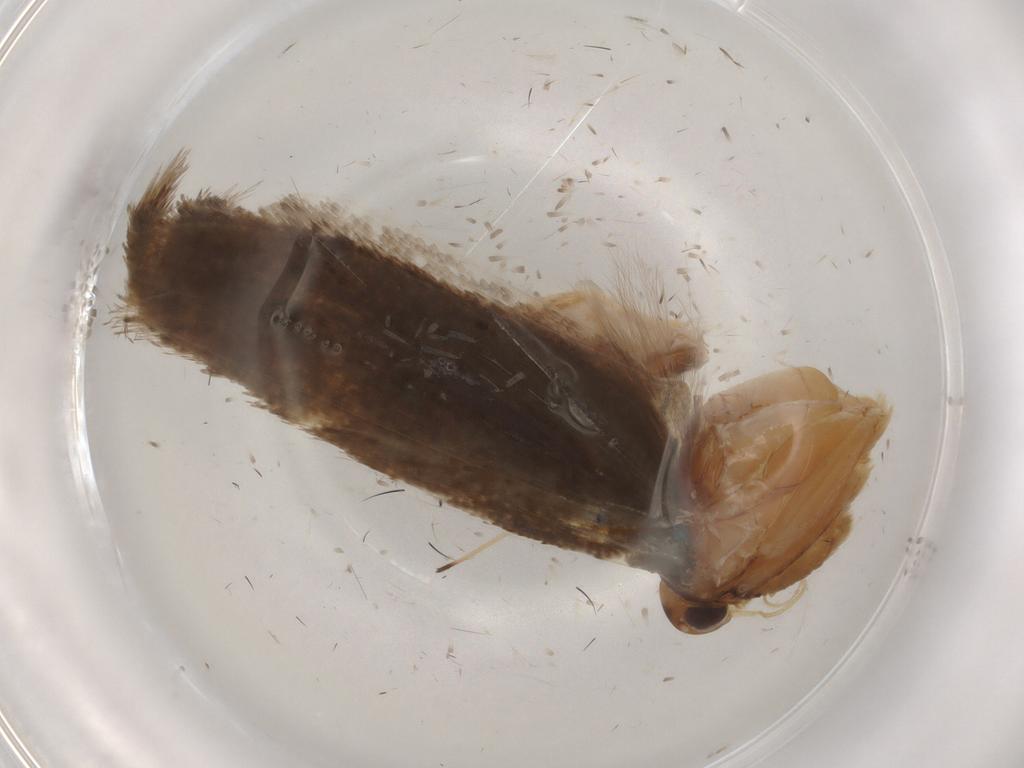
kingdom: Animalia
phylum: Arthropoda
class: Insecta
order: Lepidoptera
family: Gelechiidae
